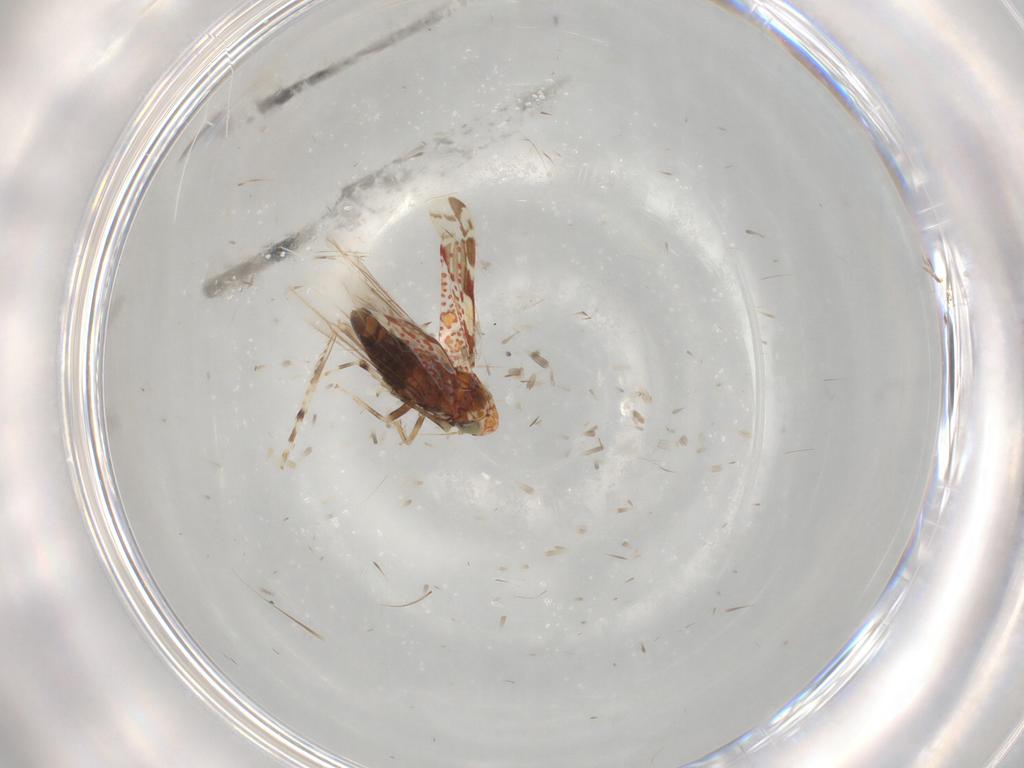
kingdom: Animalia
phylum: Arthropoda
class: Insecta
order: Hemiptera
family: Cicadellidae
